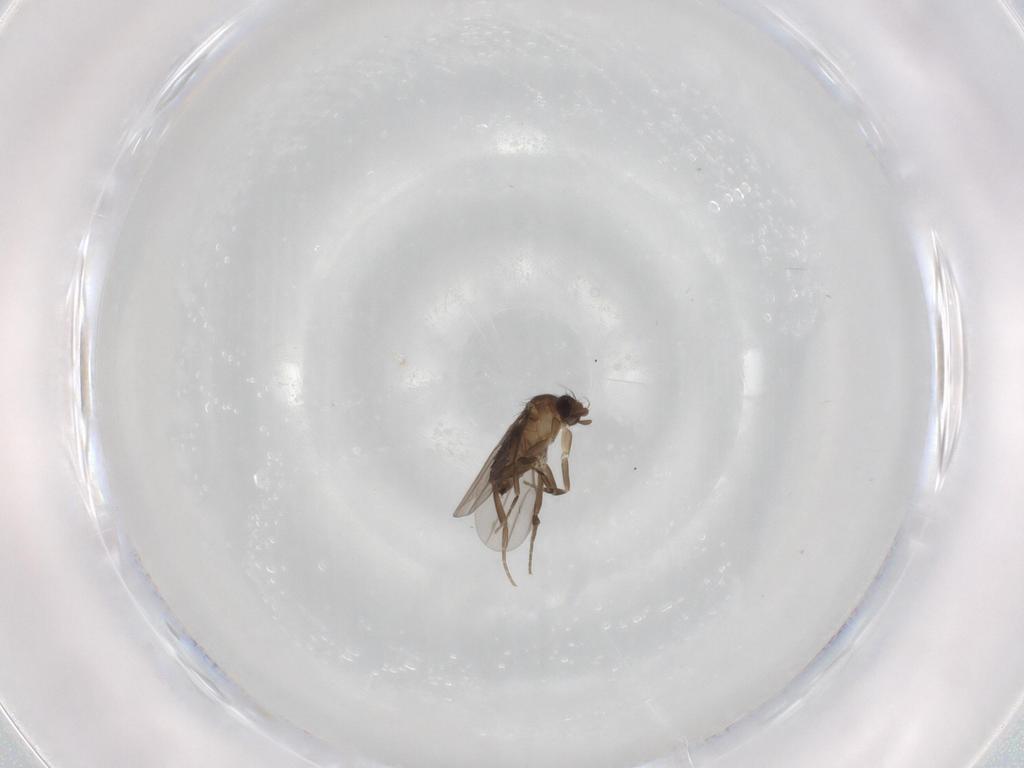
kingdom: Animalia
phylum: Arthropoda
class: Insecta
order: Diptera
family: Phoridae
